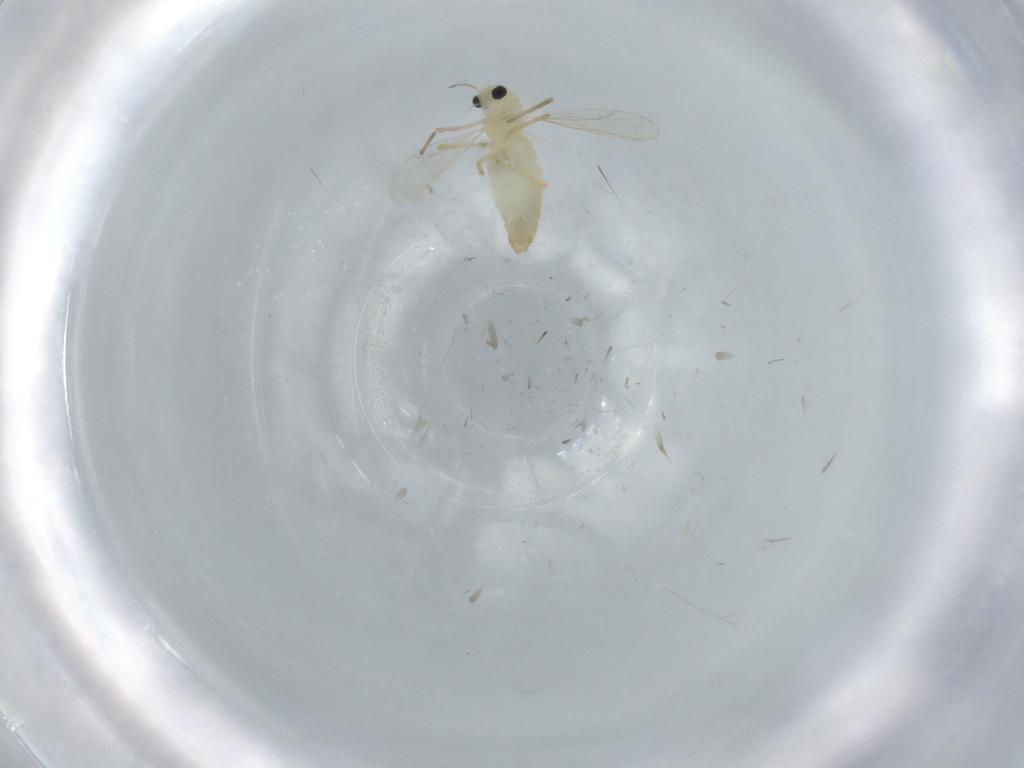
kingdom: Animalia
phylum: Arthropoda
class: Insecta
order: Diptera
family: Chironomidae
